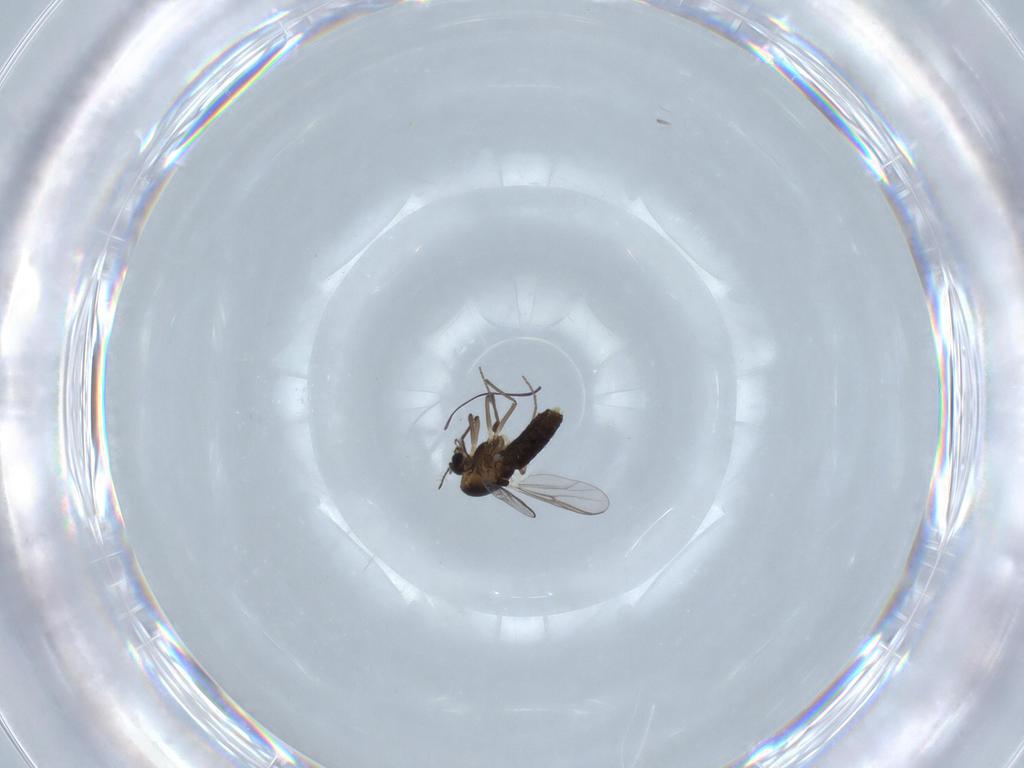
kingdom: Animalia
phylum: Arthropoda
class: Insecta
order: Diptera
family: Chironomidae
